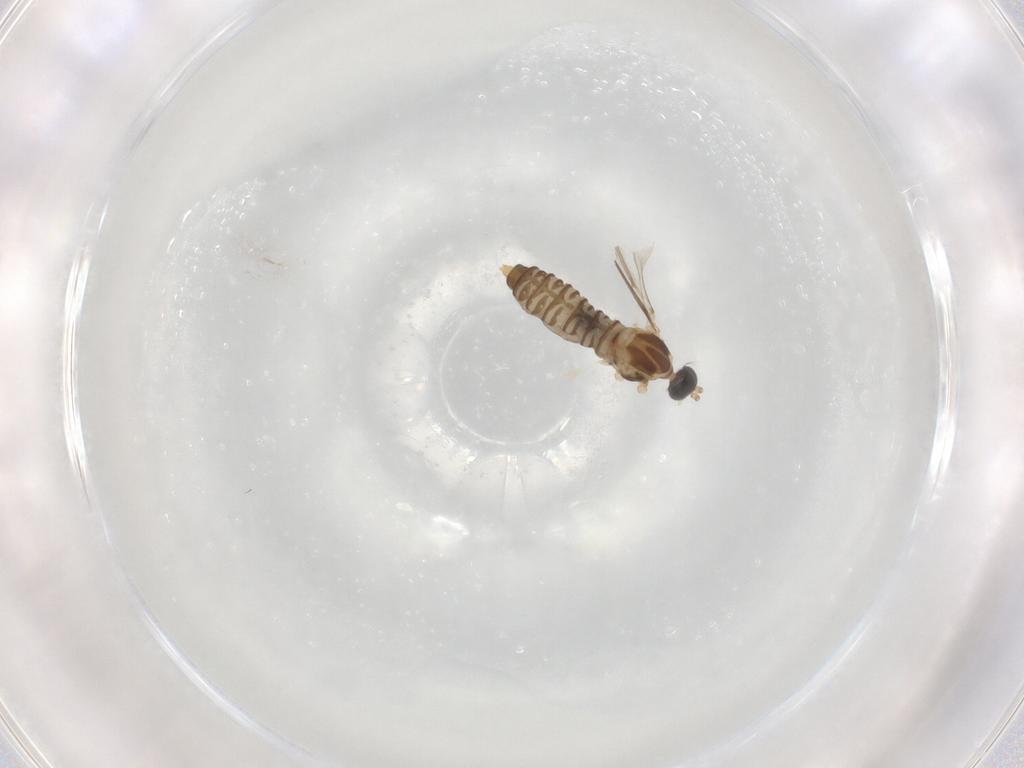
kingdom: Animalia
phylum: Arthropoda
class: Insecta
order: Diptera
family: Cecidomyiidae
